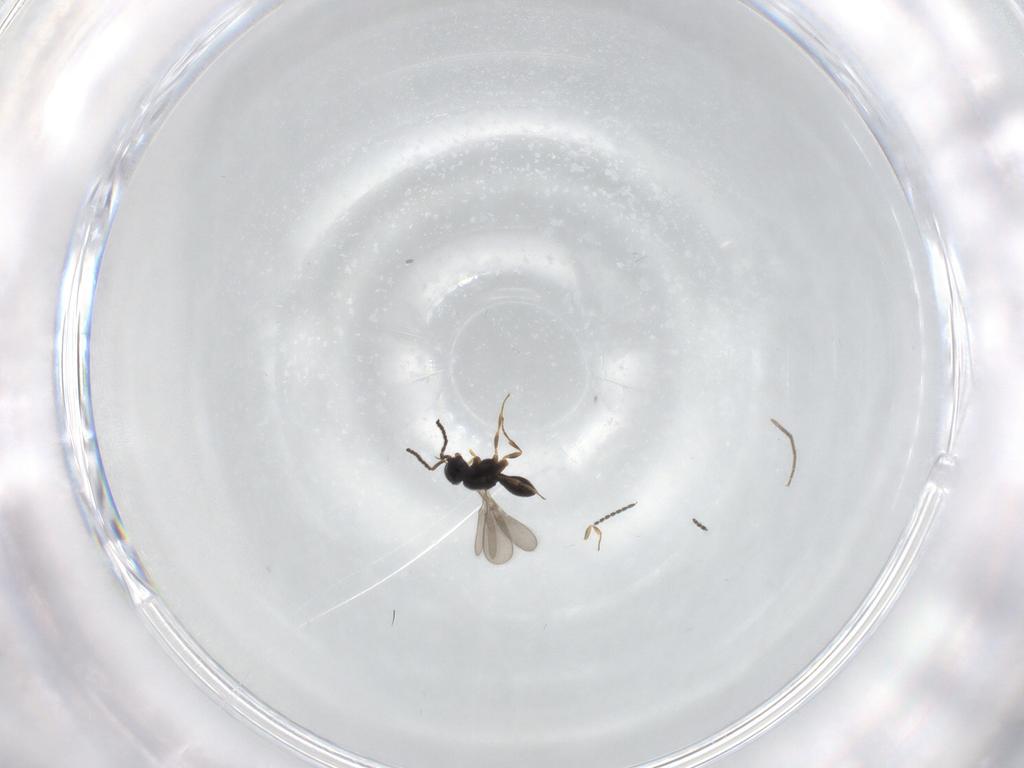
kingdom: Animalia
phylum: Arthropoda
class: Insecta
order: Hymenoptera
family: Scelionidae
